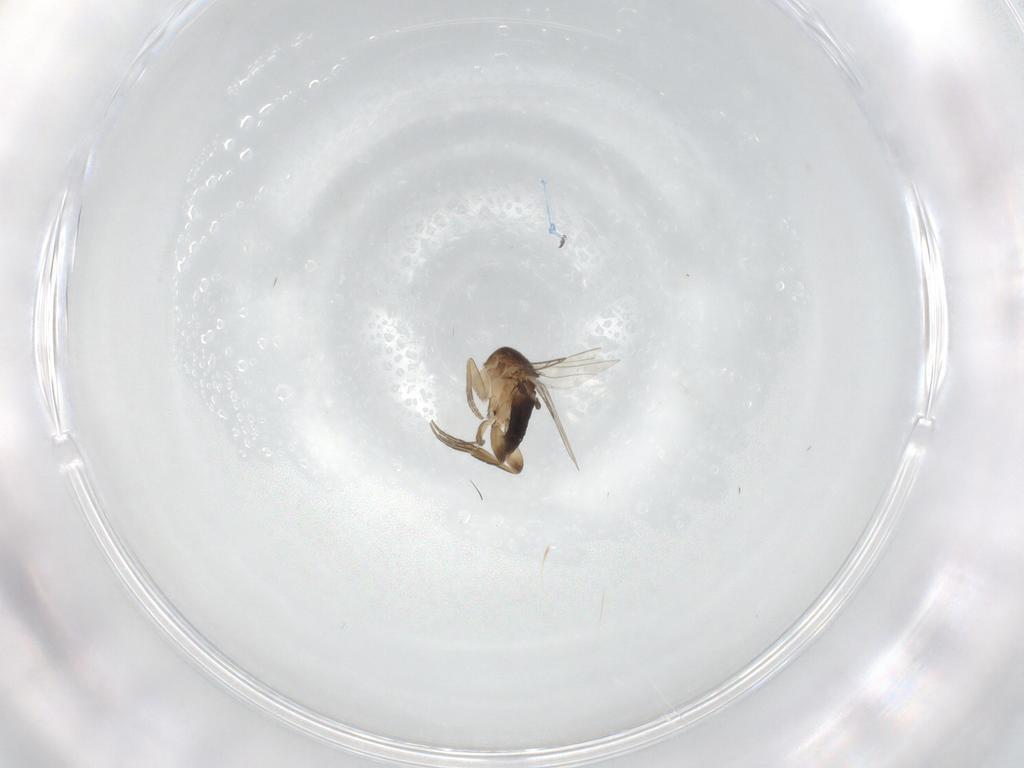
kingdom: Animalia
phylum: Arthropoda
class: Insecta
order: Diptera
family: Ceratopogonidae
